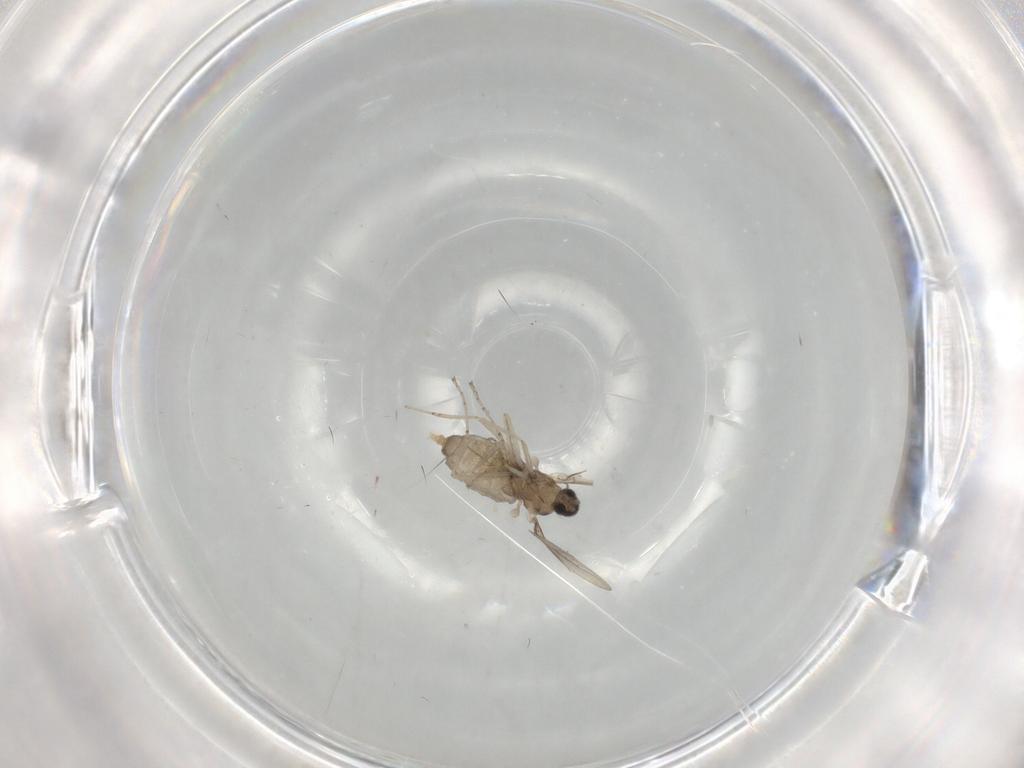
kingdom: Animalia
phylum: Arthropoda
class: Insecta
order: Diptera
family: Cecidomyiidae
